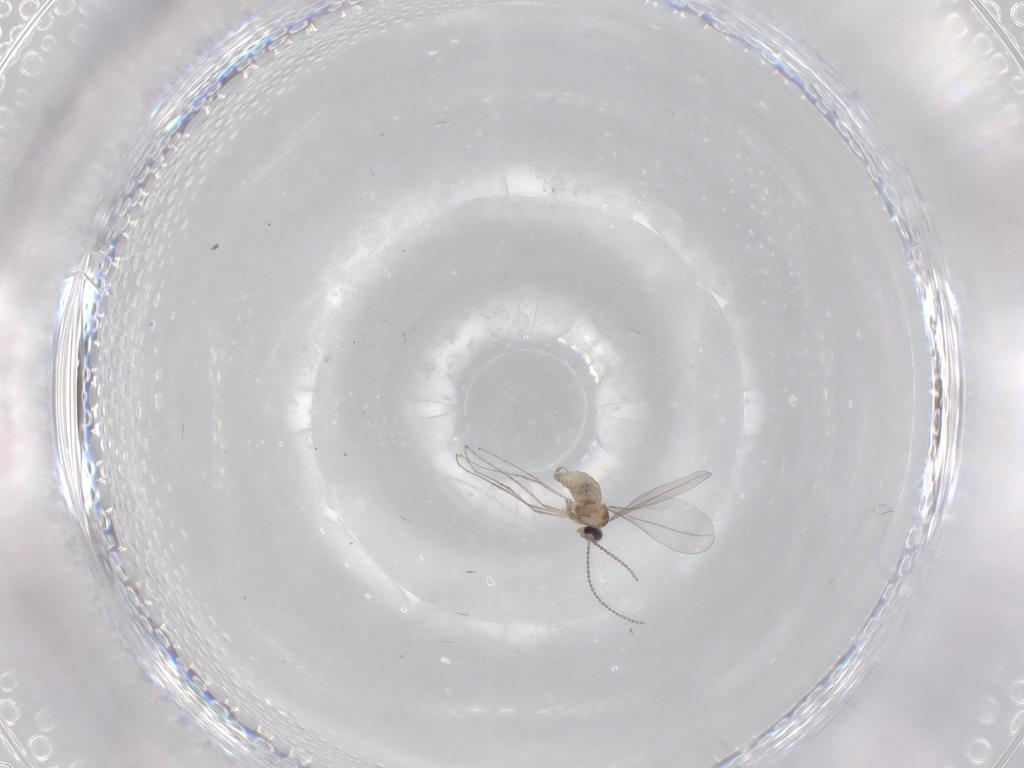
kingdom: Animalia
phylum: Arthropoda
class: Insecta
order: Diptera
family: Cecidomyiidae
